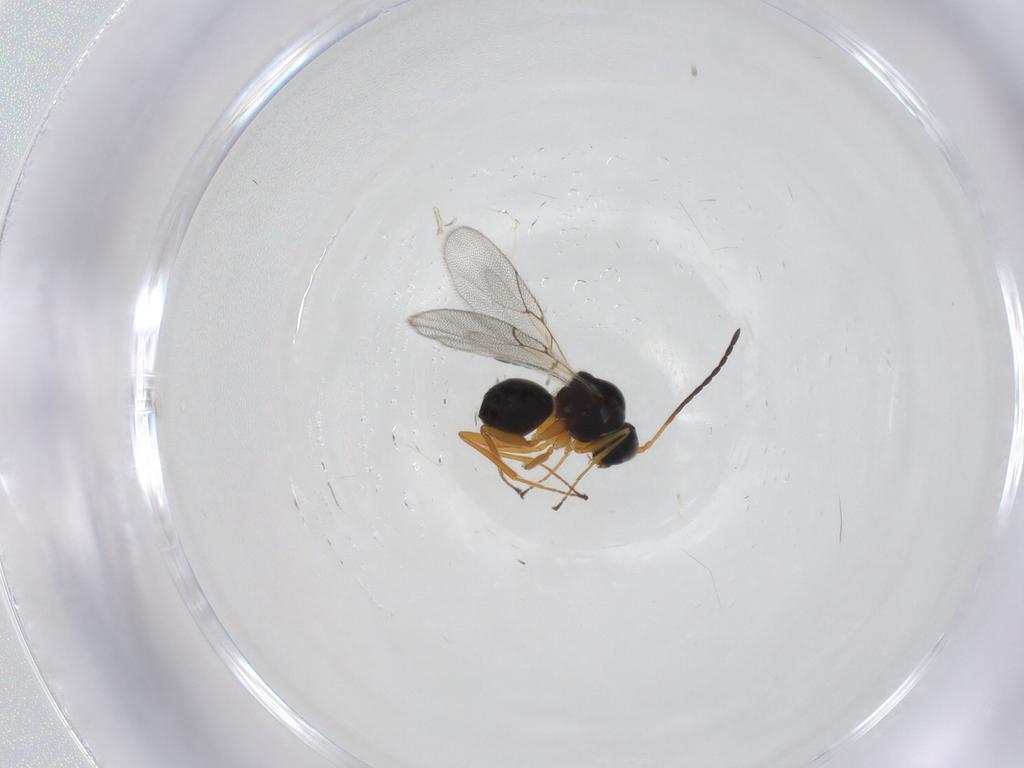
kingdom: Animalia
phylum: Arthropoda
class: Insecta
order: Hymenoptera
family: Figitidae
